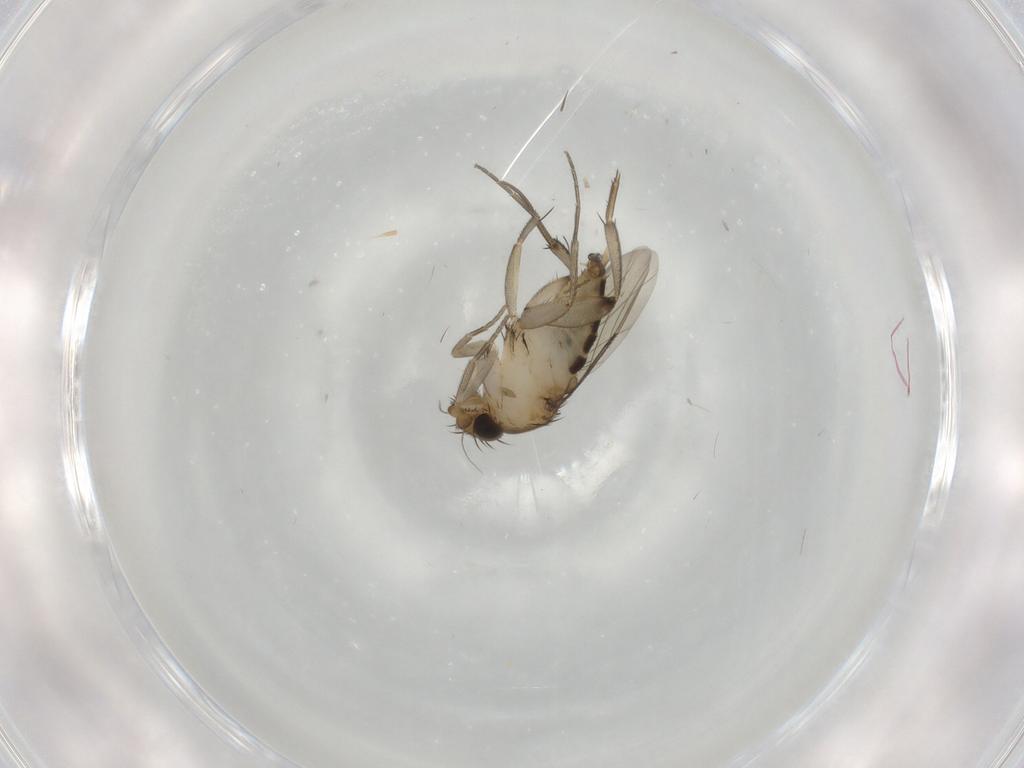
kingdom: Animalia
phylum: Arthropoda
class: Insecta
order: Diptera
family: Phoridae
